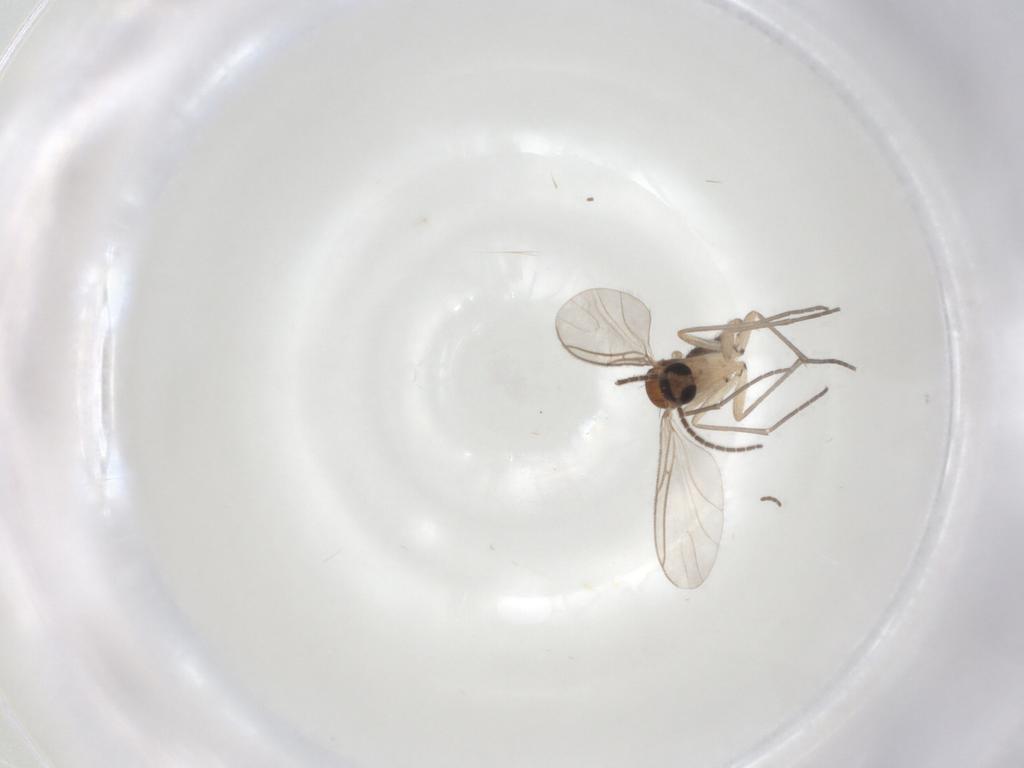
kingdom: Animalia
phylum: Arthropoda
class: Insecta
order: Diptera
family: Sciaridae
